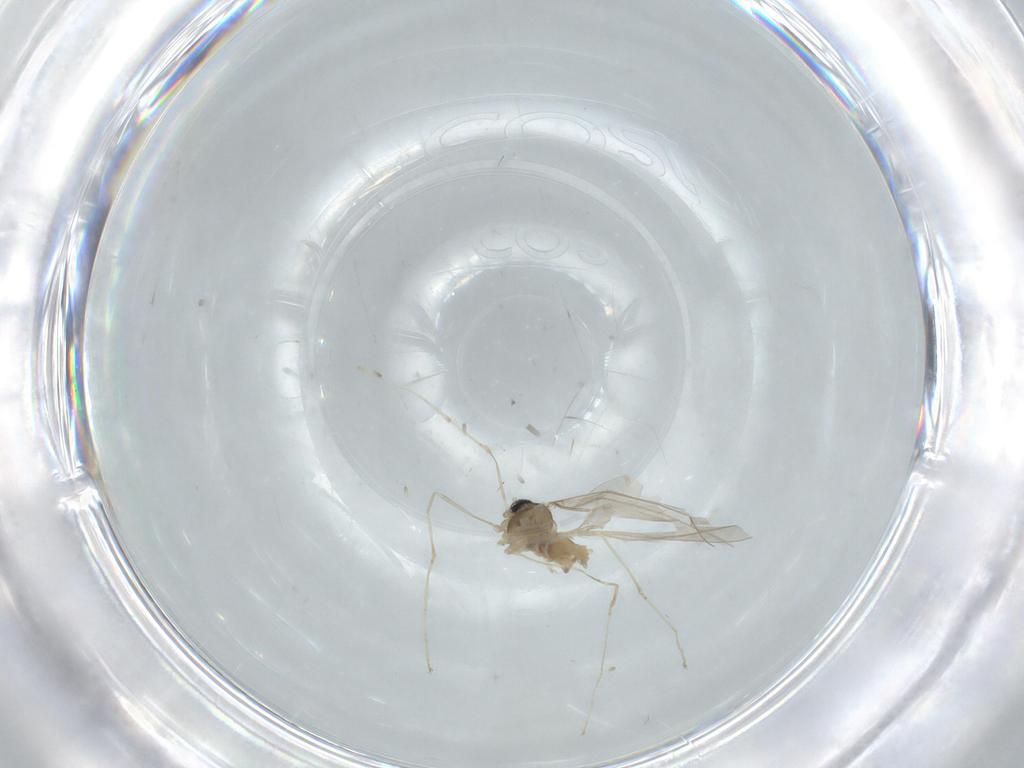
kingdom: Animalia
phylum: Arthropoda
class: Insecta
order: Diptera
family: Cecidomyiidae
